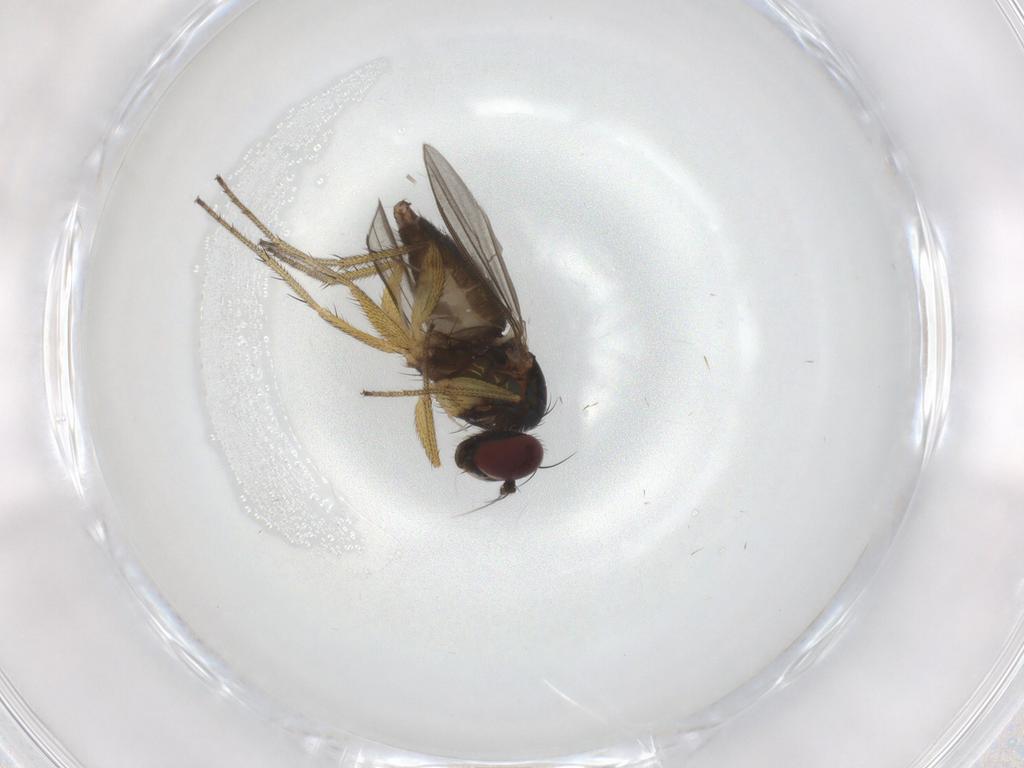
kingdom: Animalia
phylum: Arthropoda
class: Insecta
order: Diptera
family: Dolichopodidae
